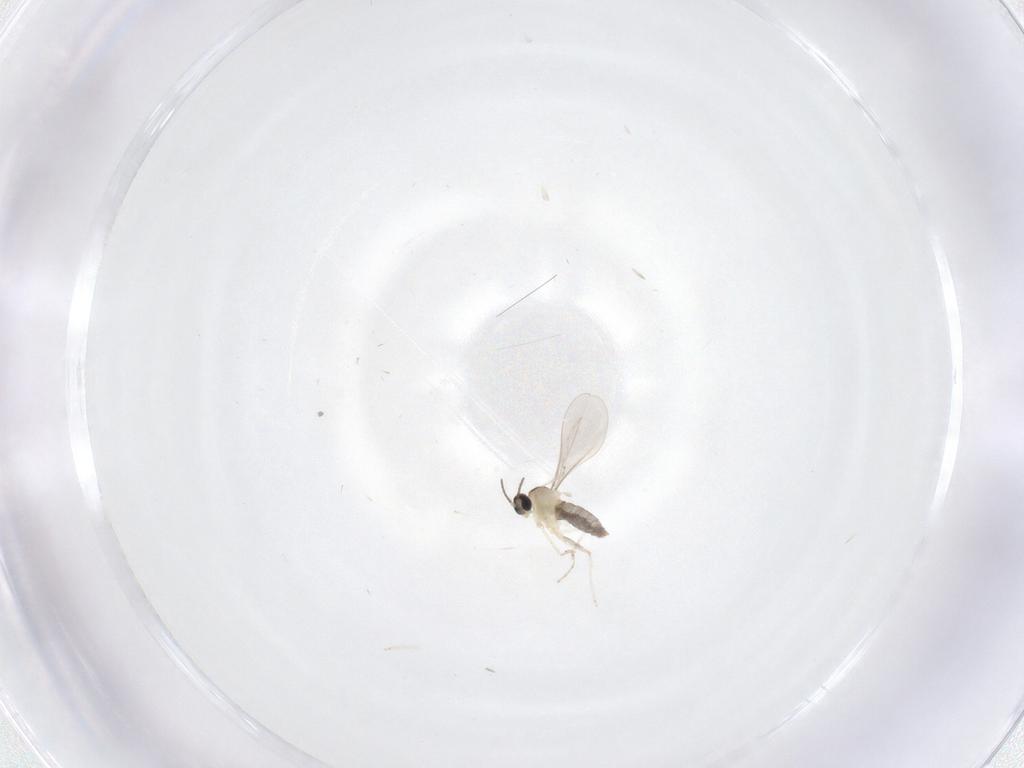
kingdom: Animalia
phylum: Arthropoda
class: Insecta
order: Diptera
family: Cecidomyiidae
